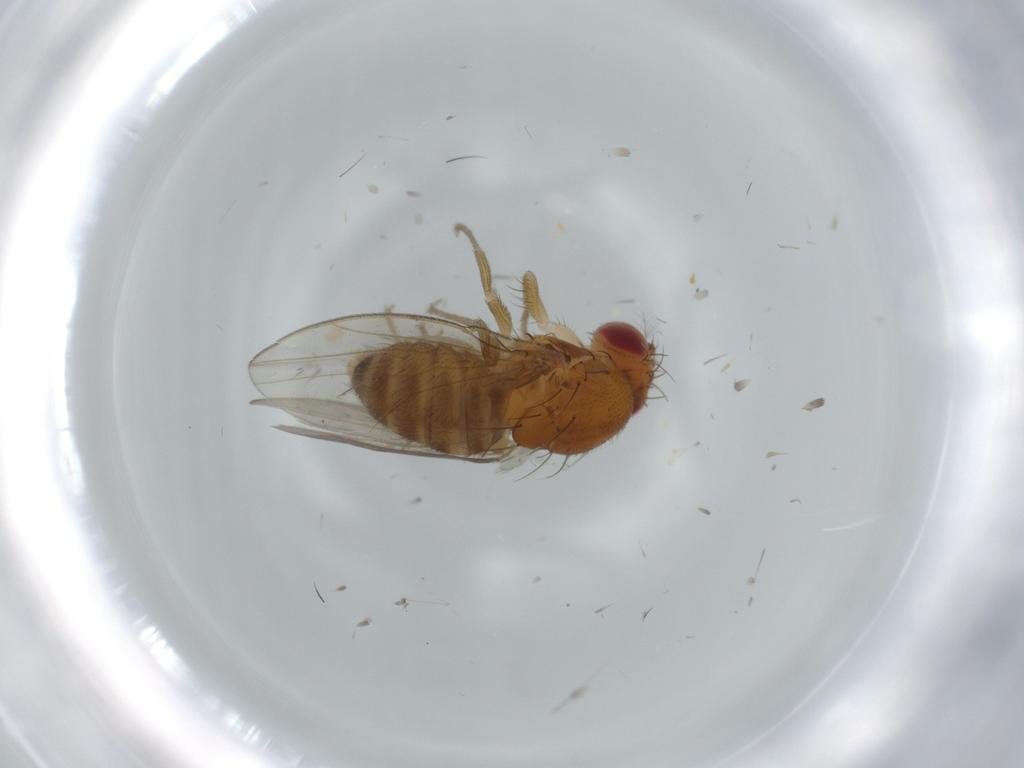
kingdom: Animalia
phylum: Arthropoda
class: Insecta
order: Diptera
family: Drosophilidae
